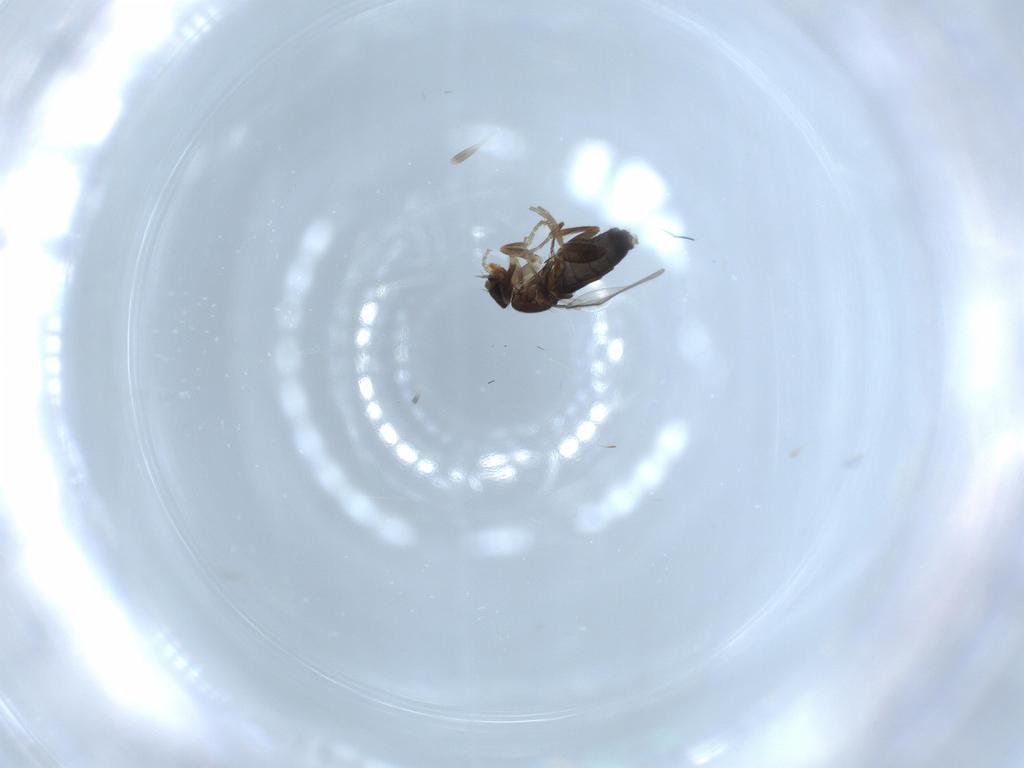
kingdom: Animalia
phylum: Arthropoda
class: Insecta
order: Diptera
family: Phoridae
